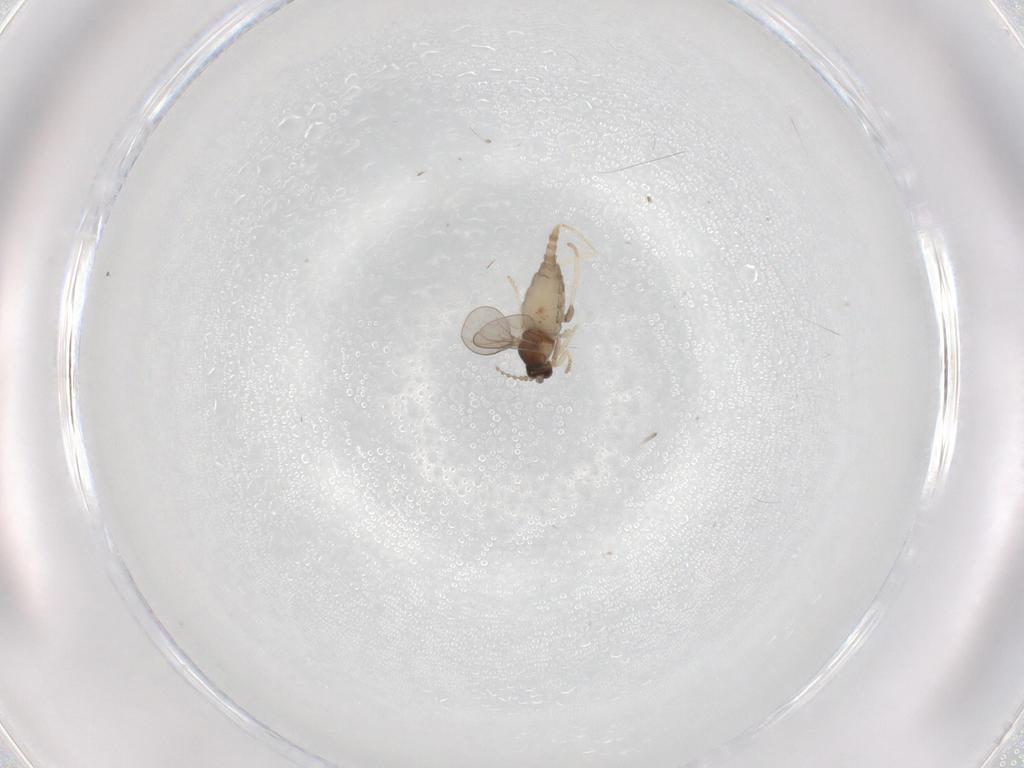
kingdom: Animalia
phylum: Arthropoda
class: Insecta
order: Diptera
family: Cecidomyiidae
